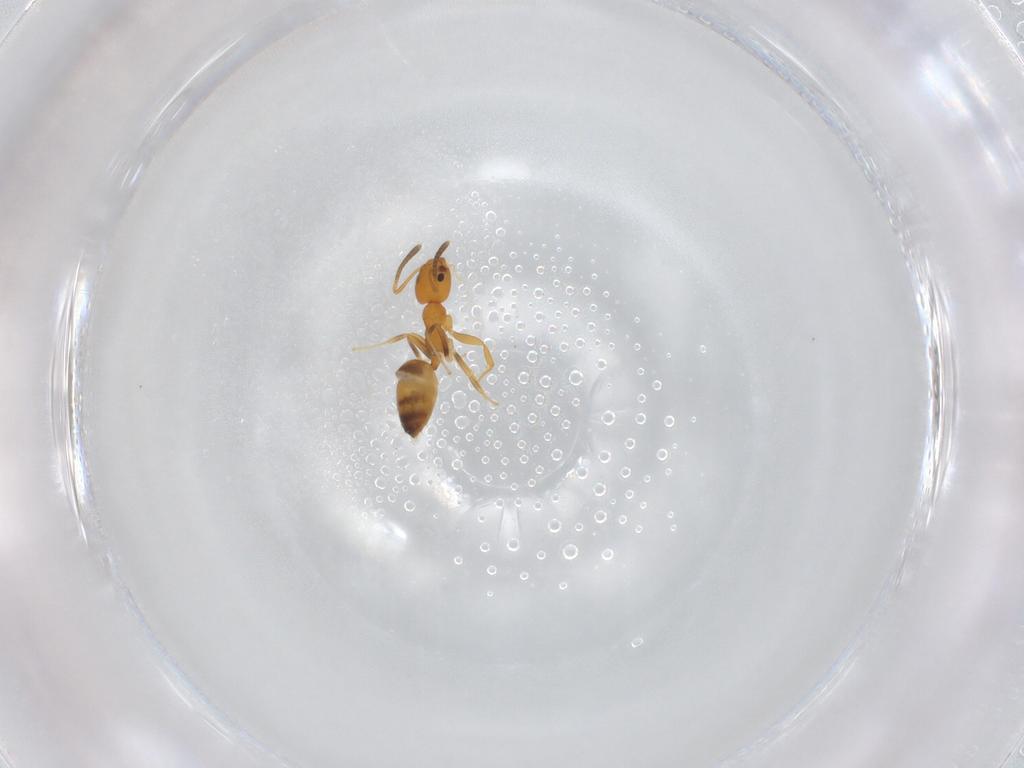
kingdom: Animalia
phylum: Arthropoda
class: Insecta
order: Hymenoptera
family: Formicidae
